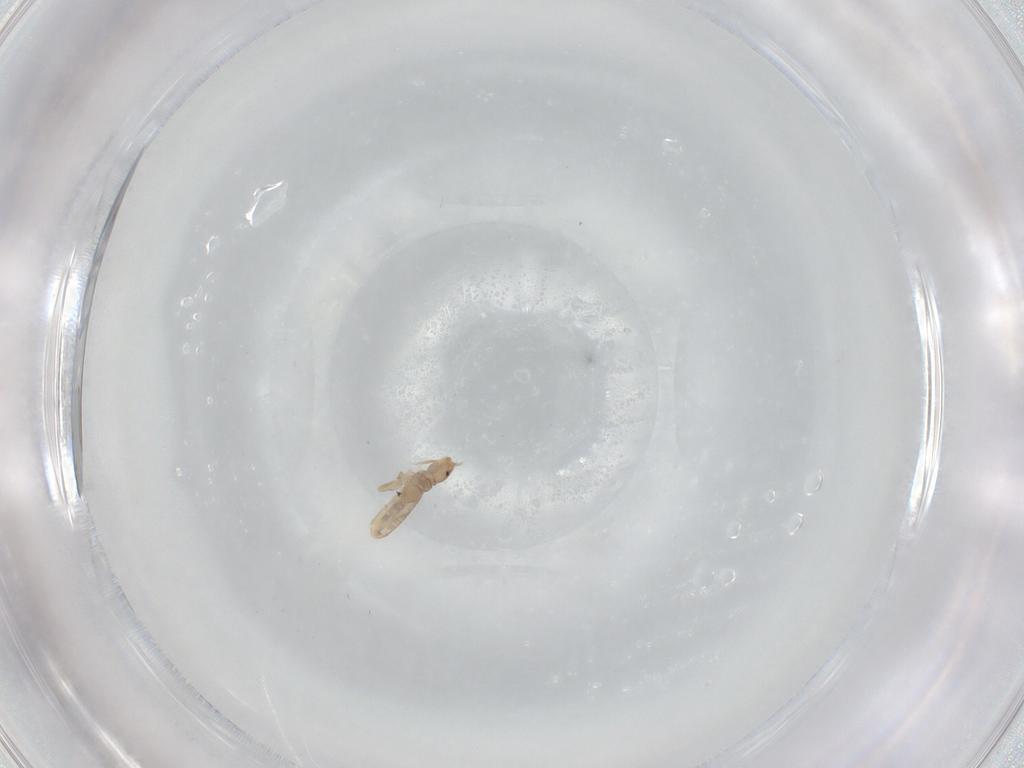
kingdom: Animalia
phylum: Arthropoda
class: Insecta
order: Psocodea
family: Liposcelididae
